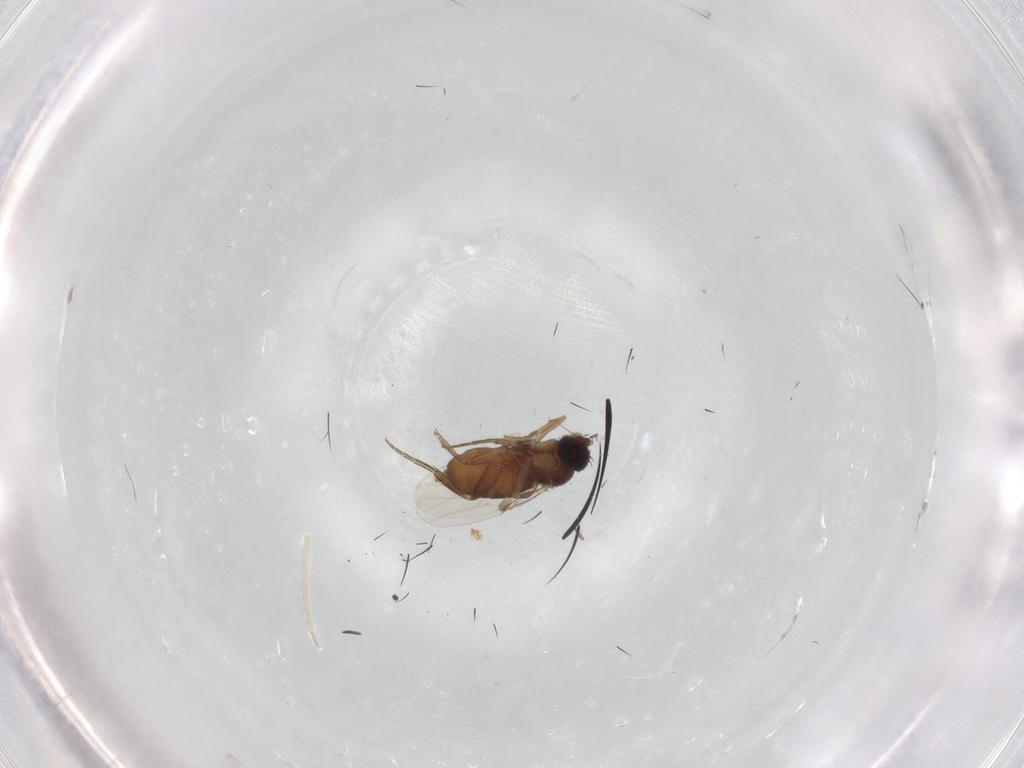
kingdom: Animalia
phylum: Arthropoda
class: Insecta
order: Diptera
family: Phoridae
